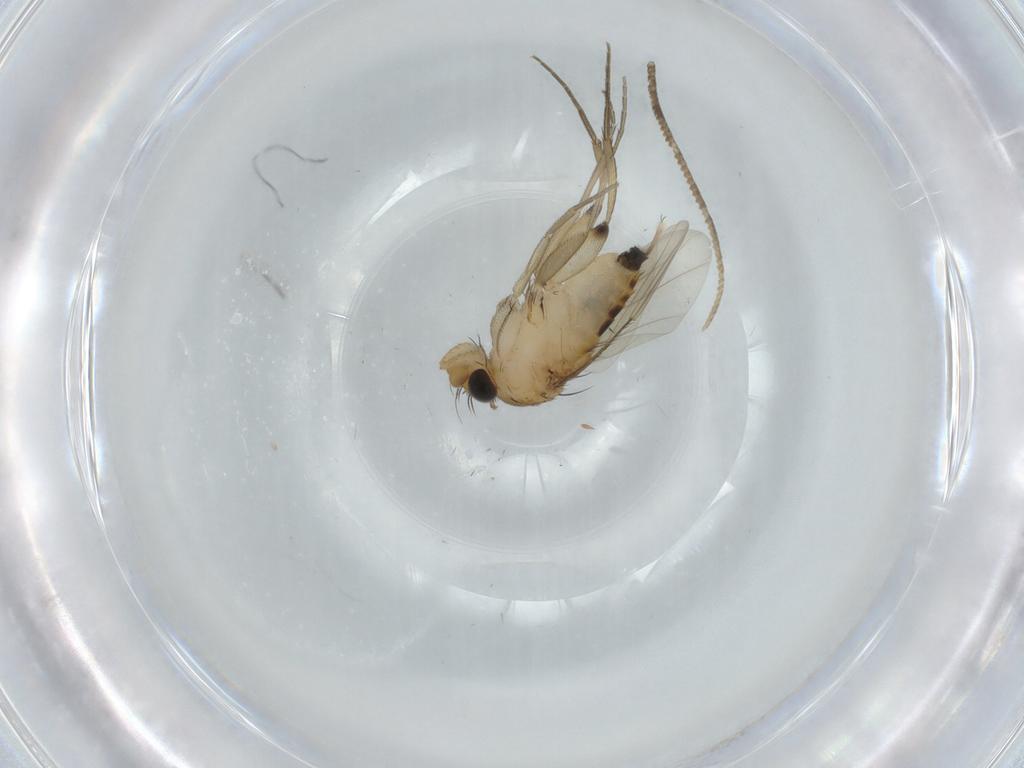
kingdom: Animalia
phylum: Arthropoda
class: Insecta
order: Diptera
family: Phoridae
